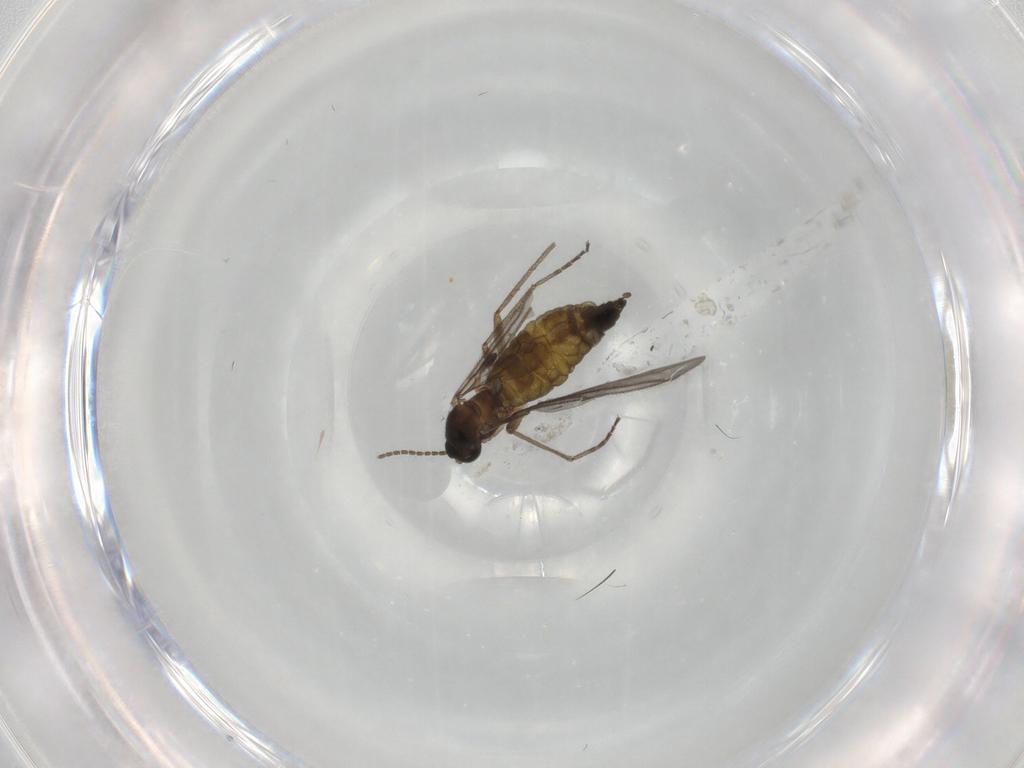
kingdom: Animalia
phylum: Arthropoda
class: Insecta
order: Diptera
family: Sciaridae
